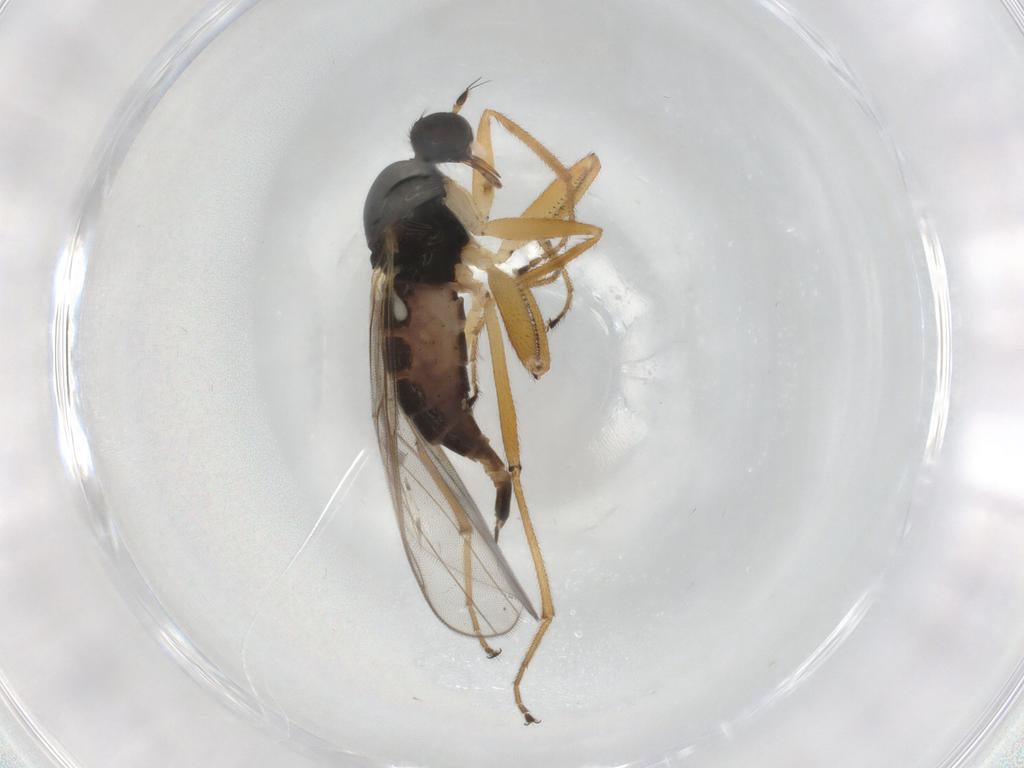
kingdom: Animalia
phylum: Arthropoda
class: Insecta
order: Diptera
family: Hybotidae
